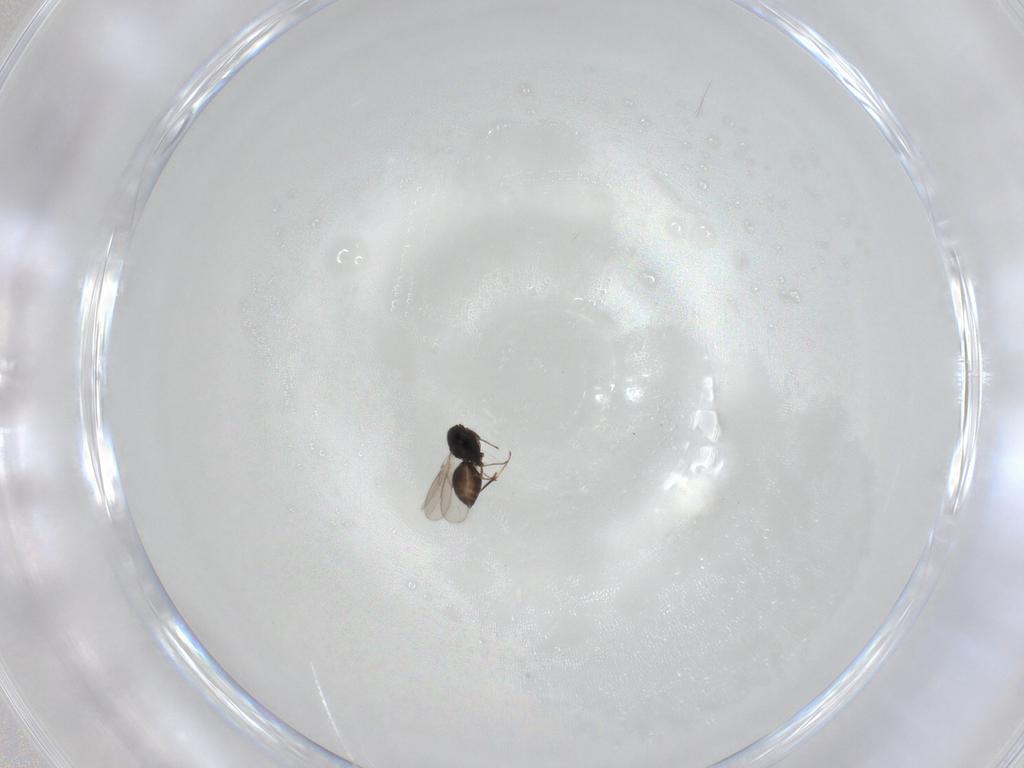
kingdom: Animalia
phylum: Arthropoda
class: Insecta
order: Hymenoptera
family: Scelionidae
